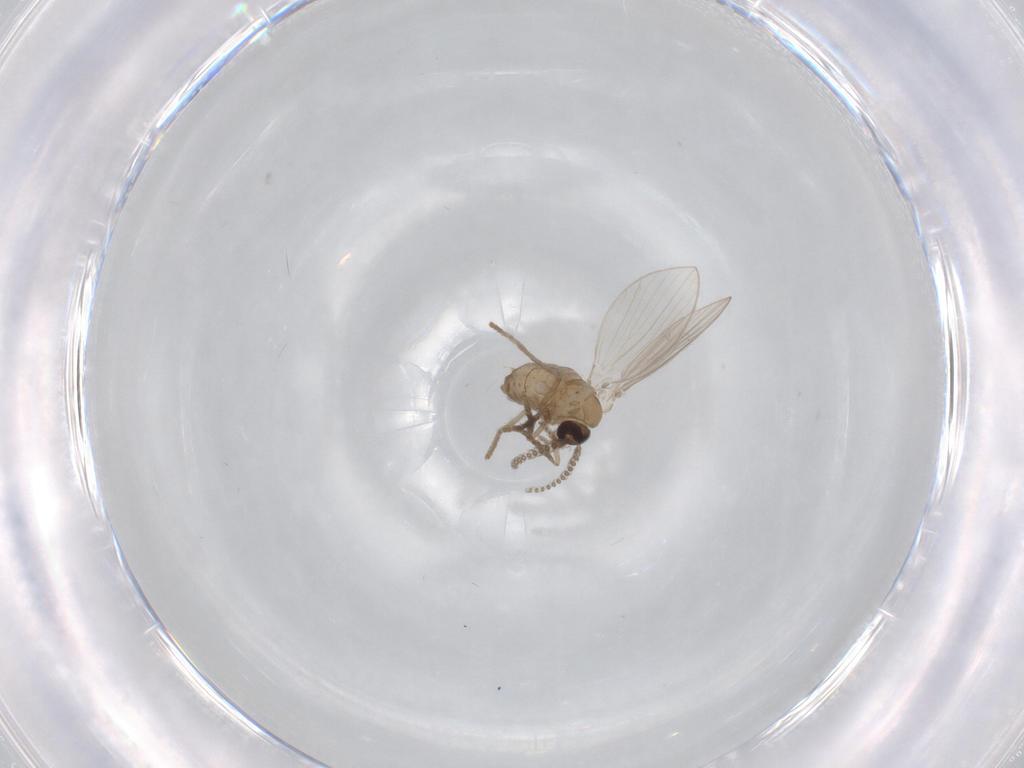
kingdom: Animalia
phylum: Arthropoda
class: Insecta
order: Diptera
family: Psychodidae
